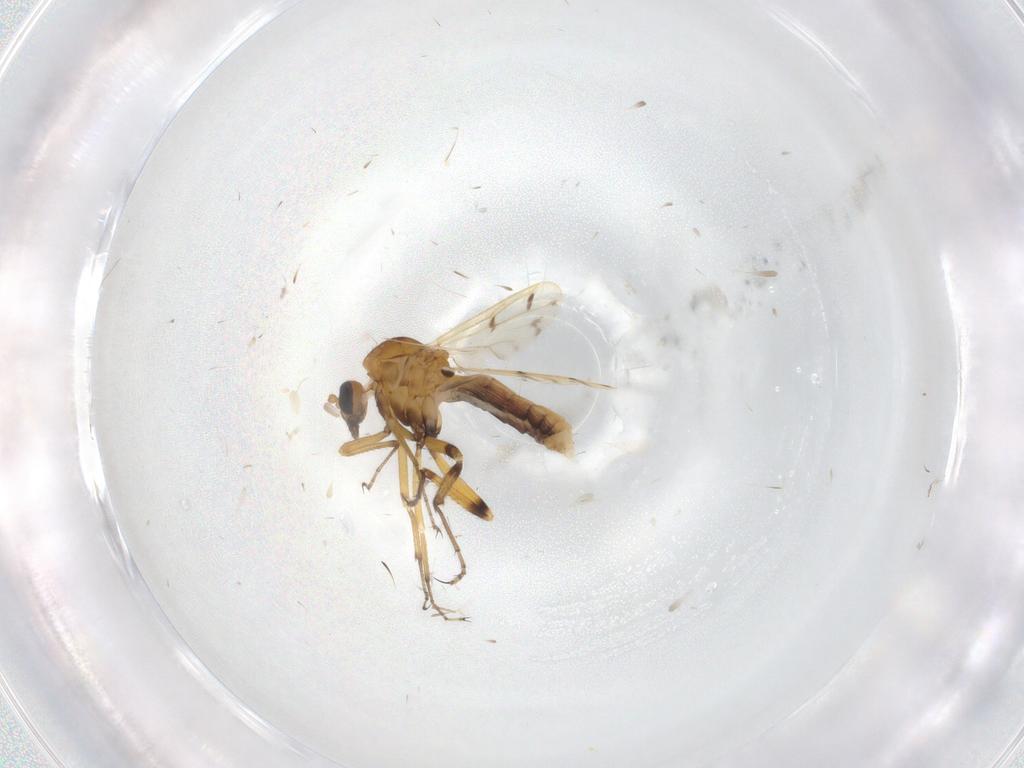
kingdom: Animalia
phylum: Arthropoda
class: Insecta
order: Diptera
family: Ceratopogonidae
